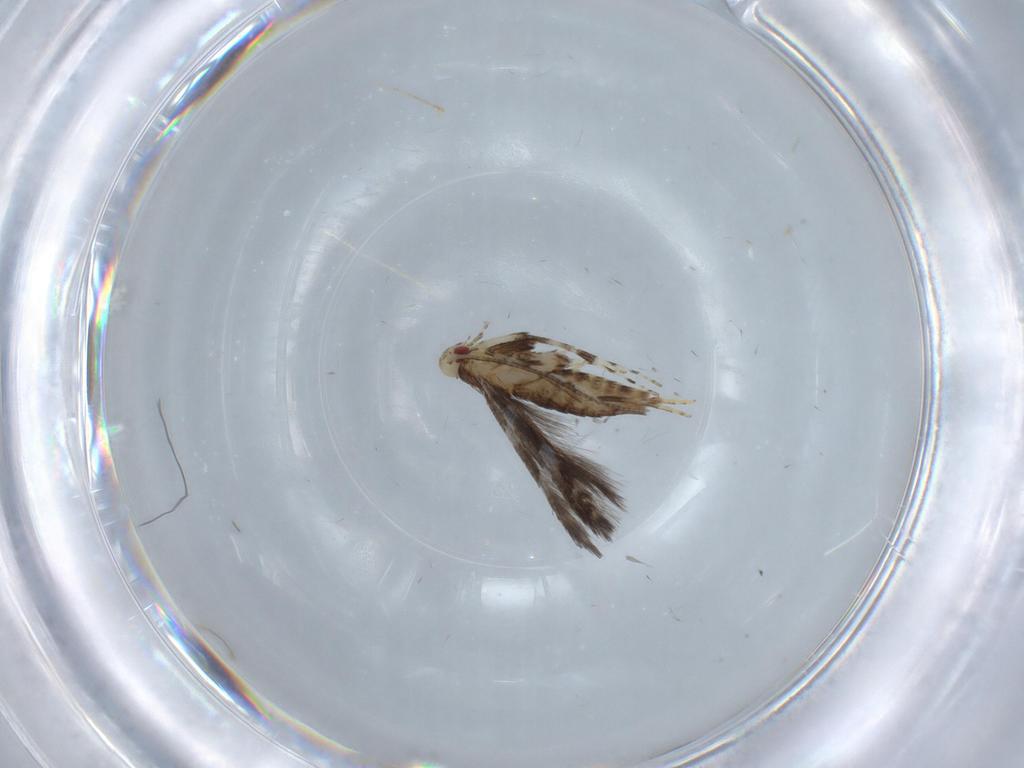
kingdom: Animalia
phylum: Arthropoda
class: Insecta
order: Lepidoptera
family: Gracillariidae
